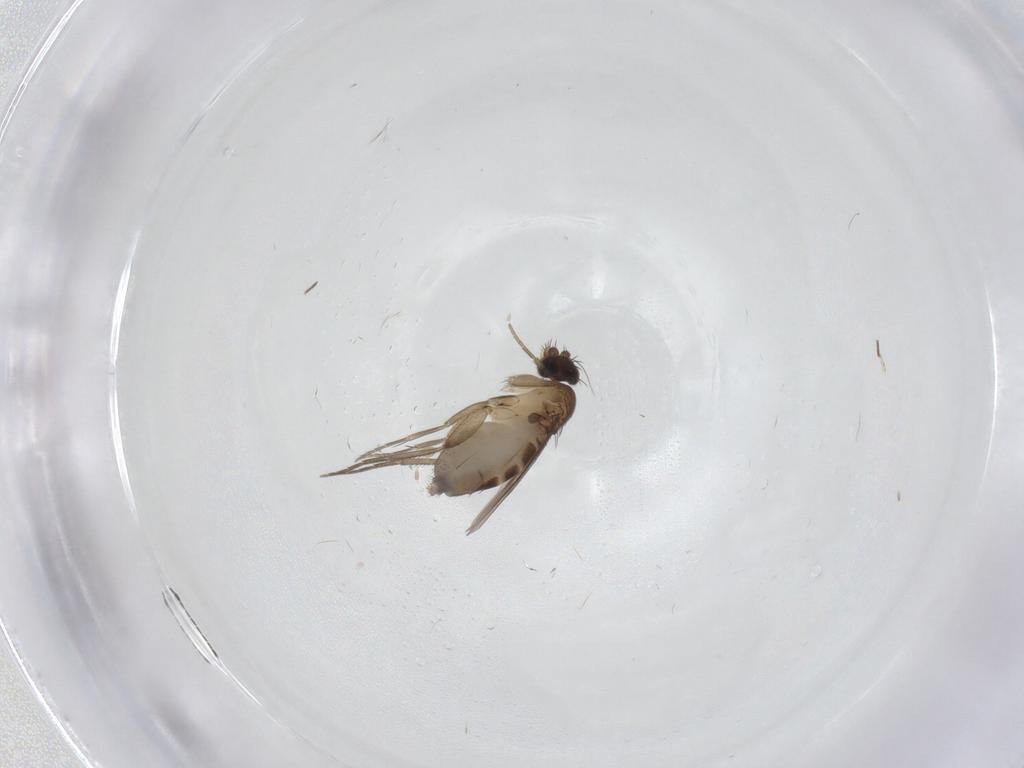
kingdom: Animalia
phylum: Arthropoda
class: Insecta
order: Diptera
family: Phoridae
